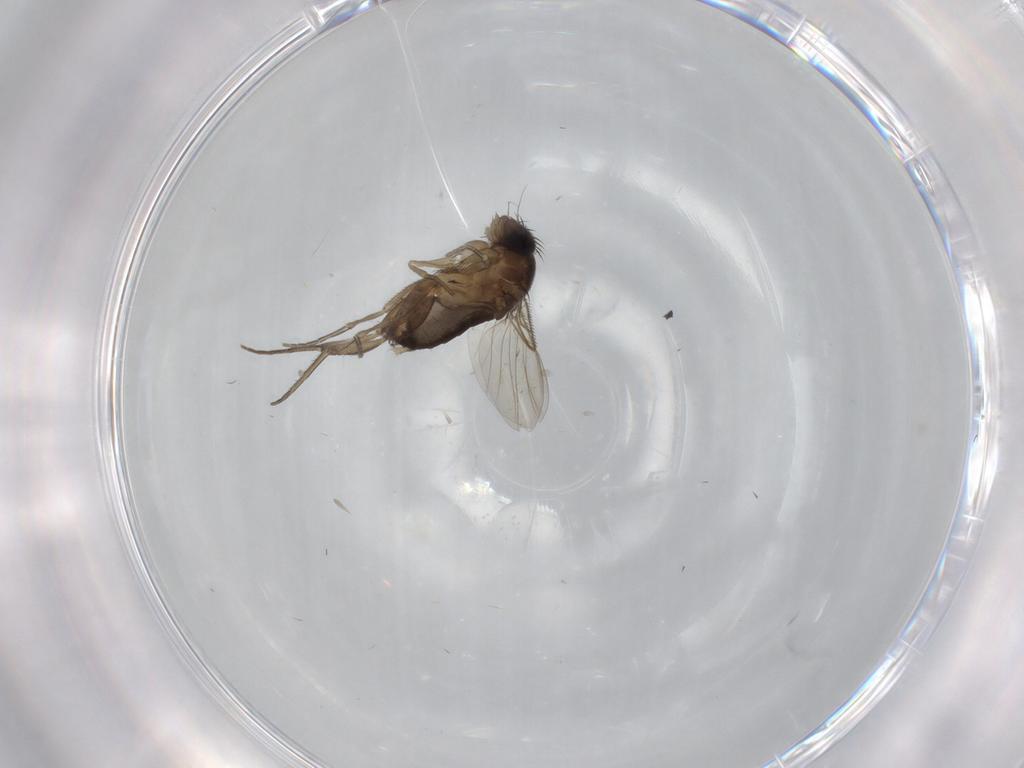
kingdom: Animalia
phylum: Arthropoda
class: Insecta
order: Diptera
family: Phoridae
